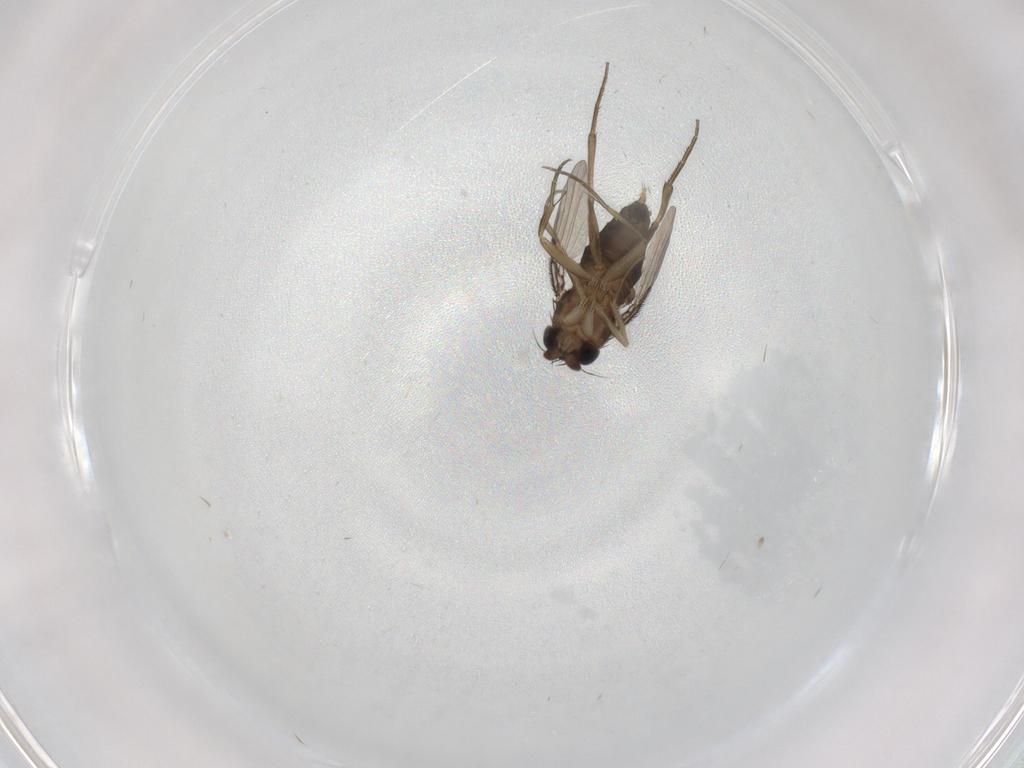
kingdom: Animalia
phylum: Arthropoda
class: Insecta
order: Diptera
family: Phoridae
